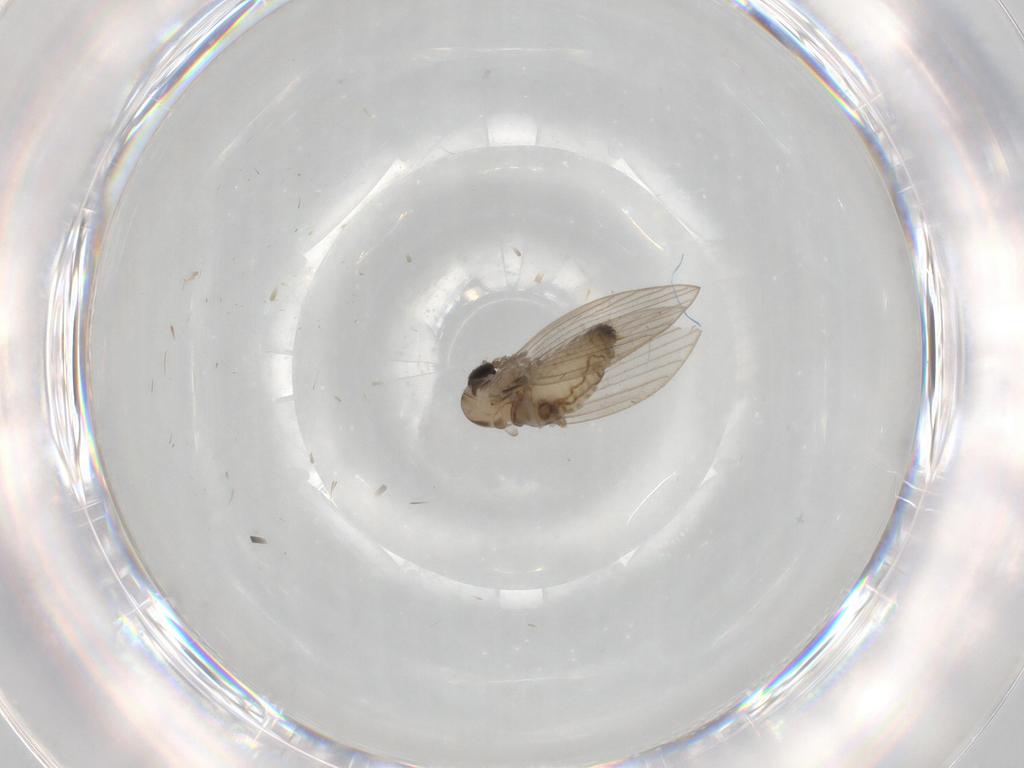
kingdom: Animalia
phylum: Arthropoda
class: Insecta
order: Diptera
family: Psychodidae
